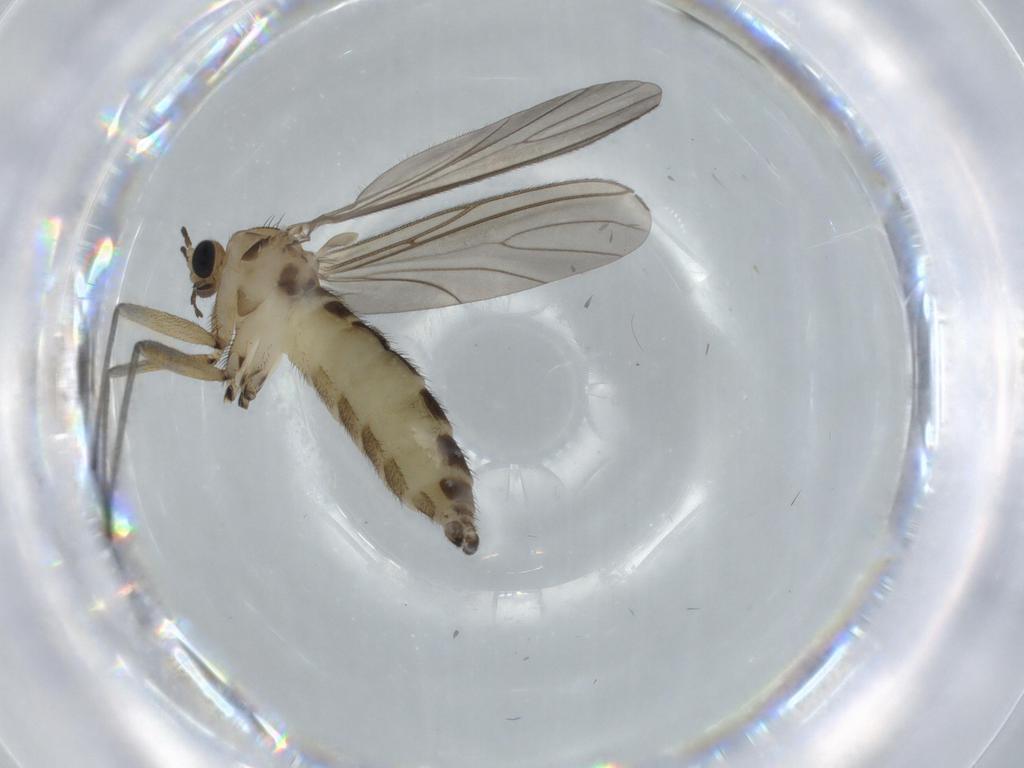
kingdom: Animalia
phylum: Arthropoda
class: Insecta
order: Diptera
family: Sciaridae
